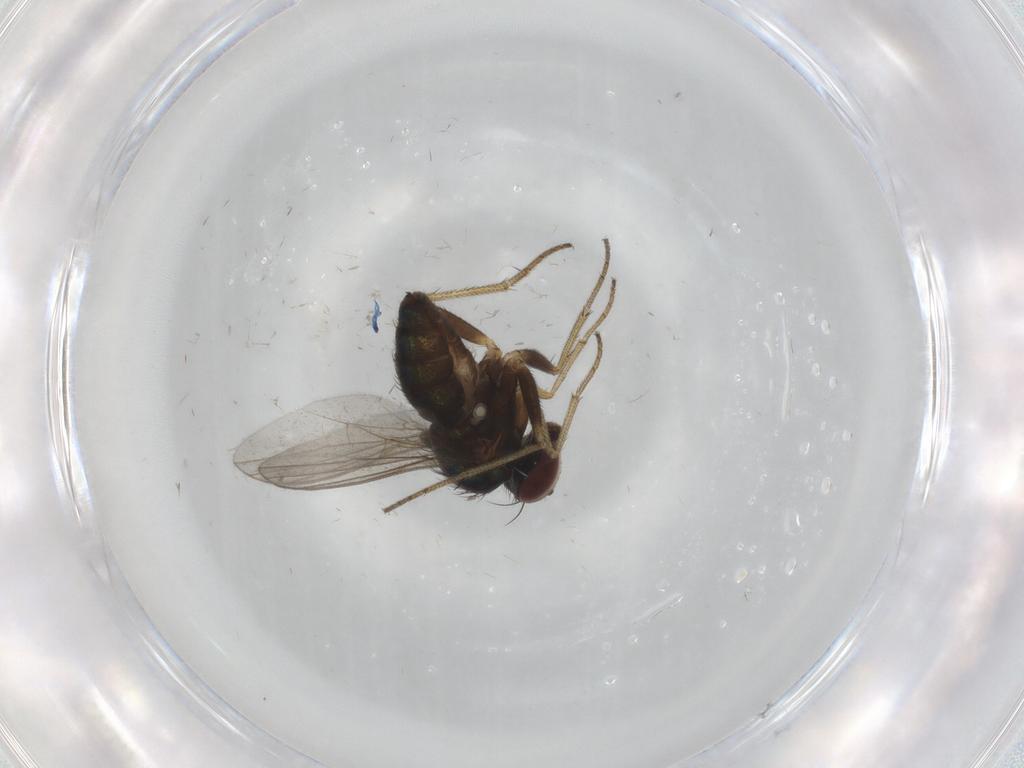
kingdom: Animalia
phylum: Arthropoda
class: Insecta
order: Diptera
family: Dolichopodidae
